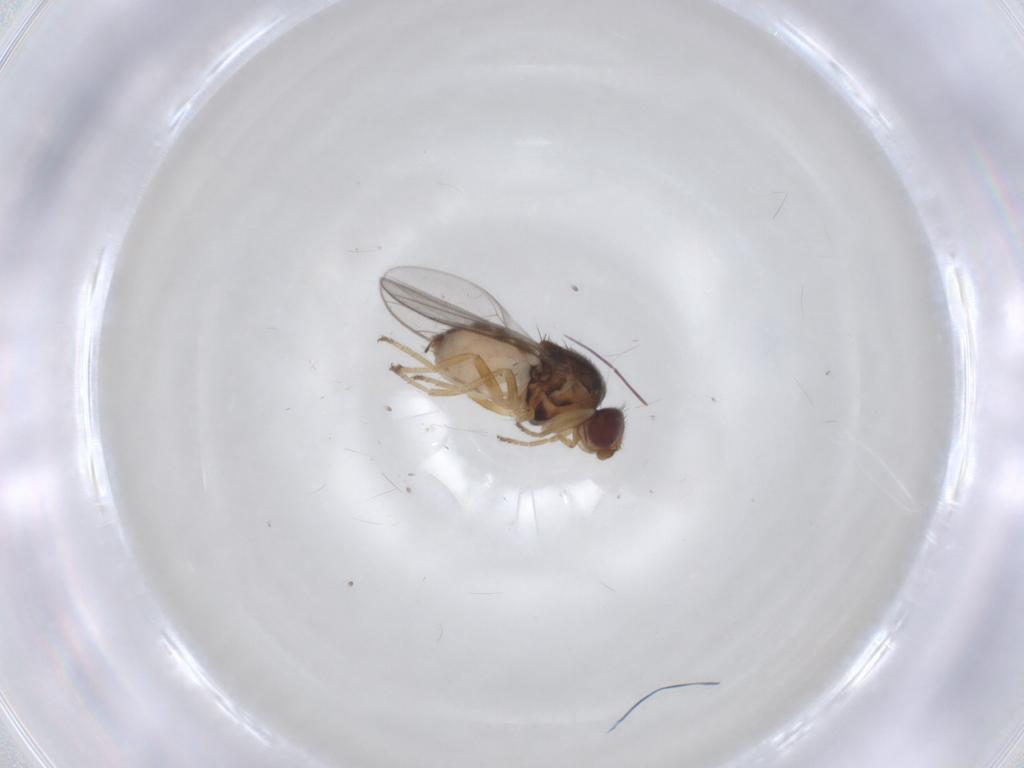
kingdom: Animalia
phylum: Arthropoda
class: Insecta
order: Diptera
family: Chloropidae
